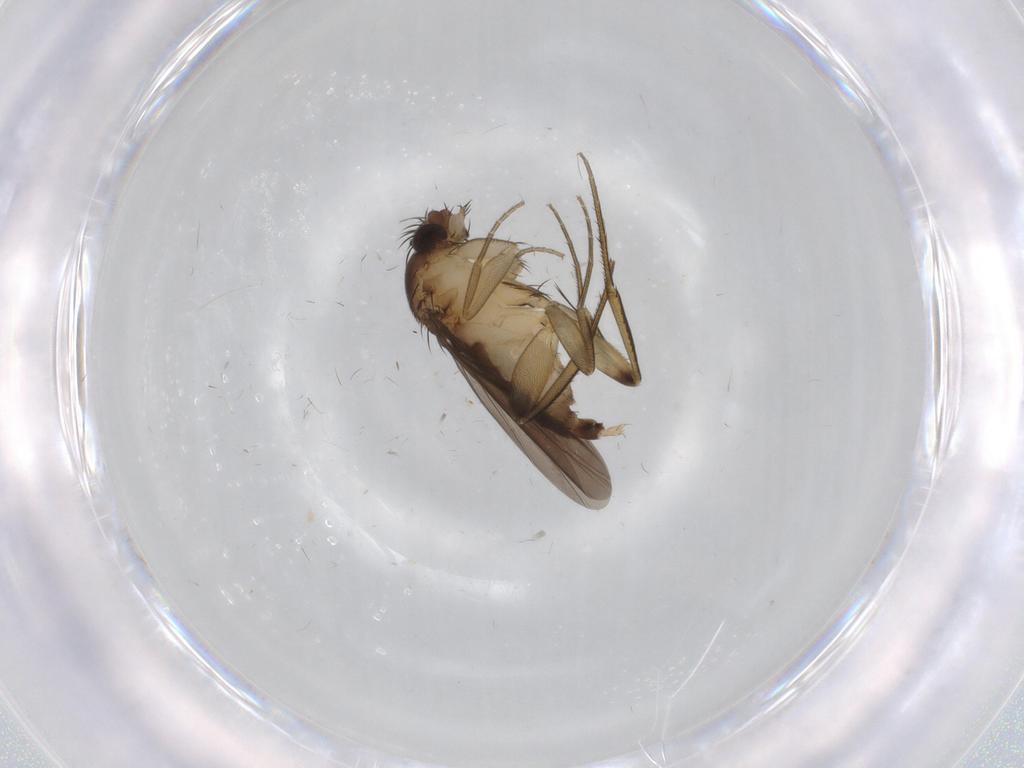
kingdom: Animalia
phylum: Arthropoda
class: Insecta
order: Diptera
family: Phoridae
